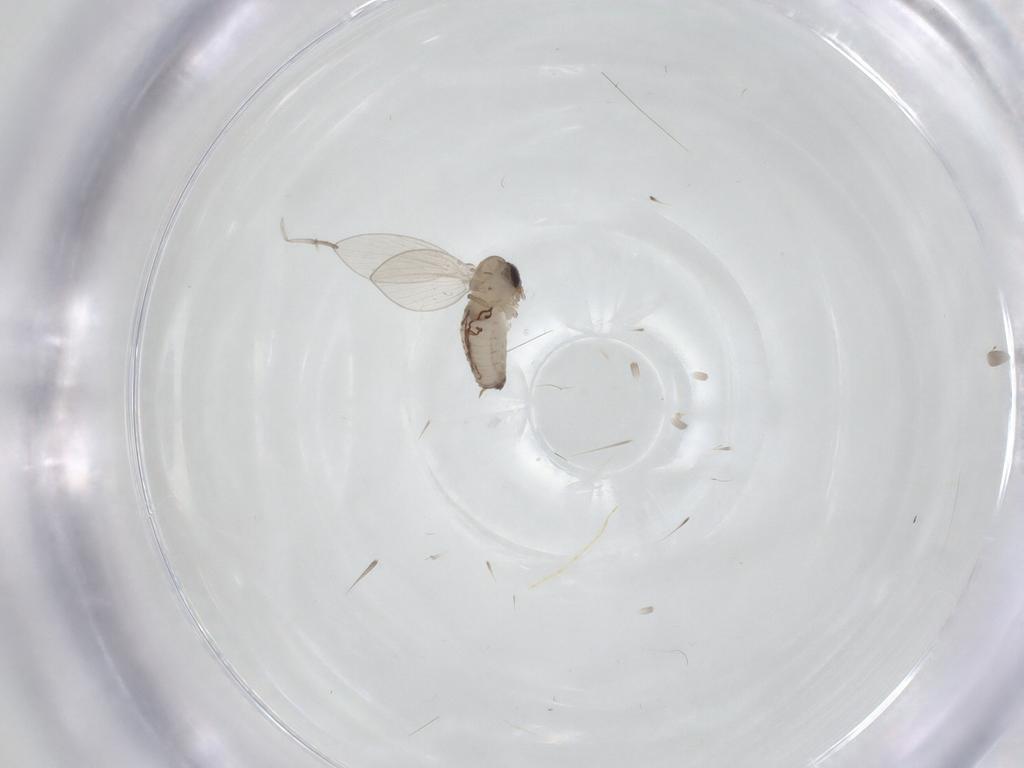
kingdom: Animalia
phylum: Arthropoda
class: Insecta
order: Diptera
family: Psychodidae
